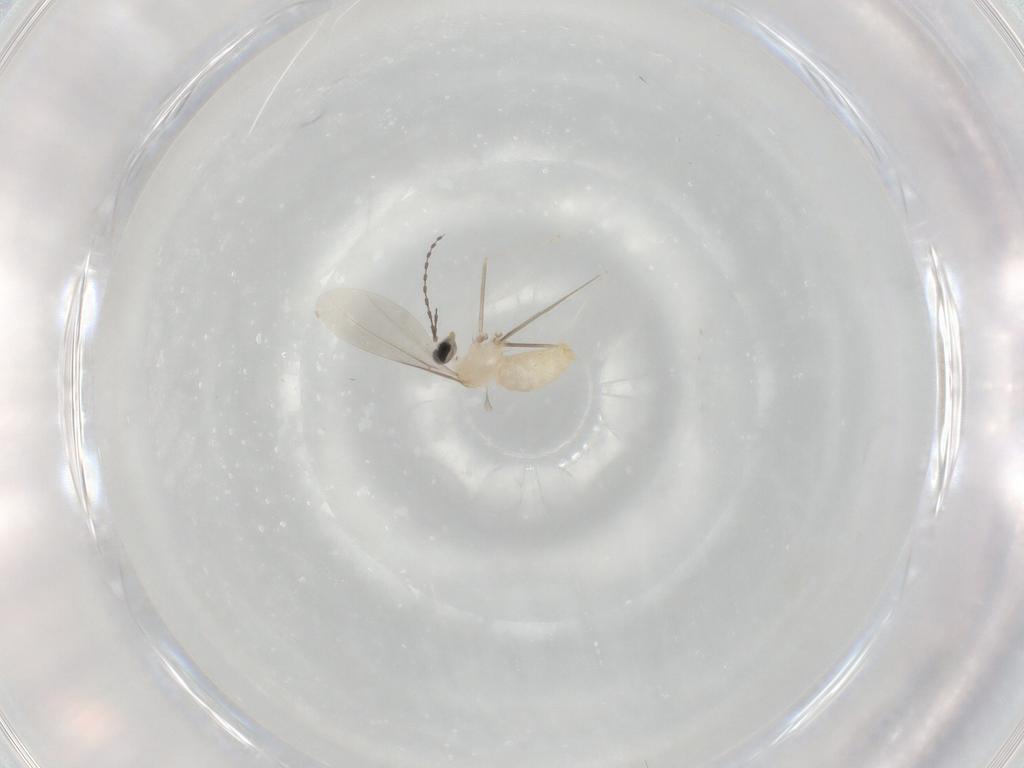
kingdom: Animalia
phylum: Arthropoda
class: Insecta
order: Diptera
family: Cecidomyiidae
